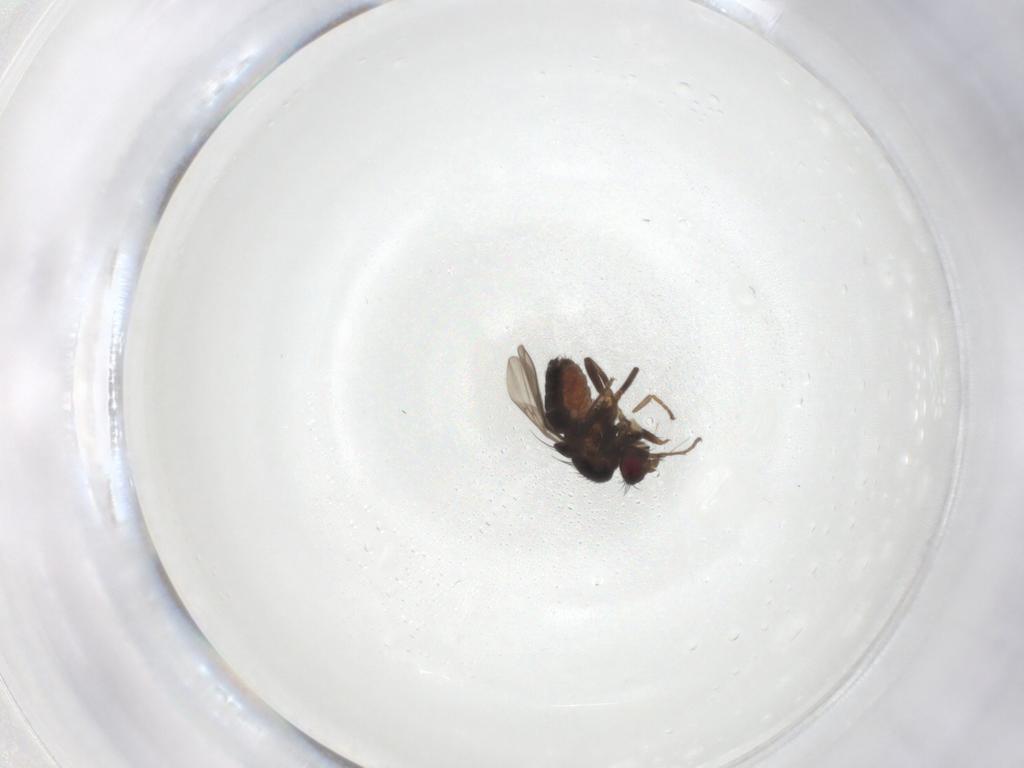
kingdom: Animalia
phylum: Arthropoda
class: Insecta
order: Diptera
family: Sphaeroceridae
